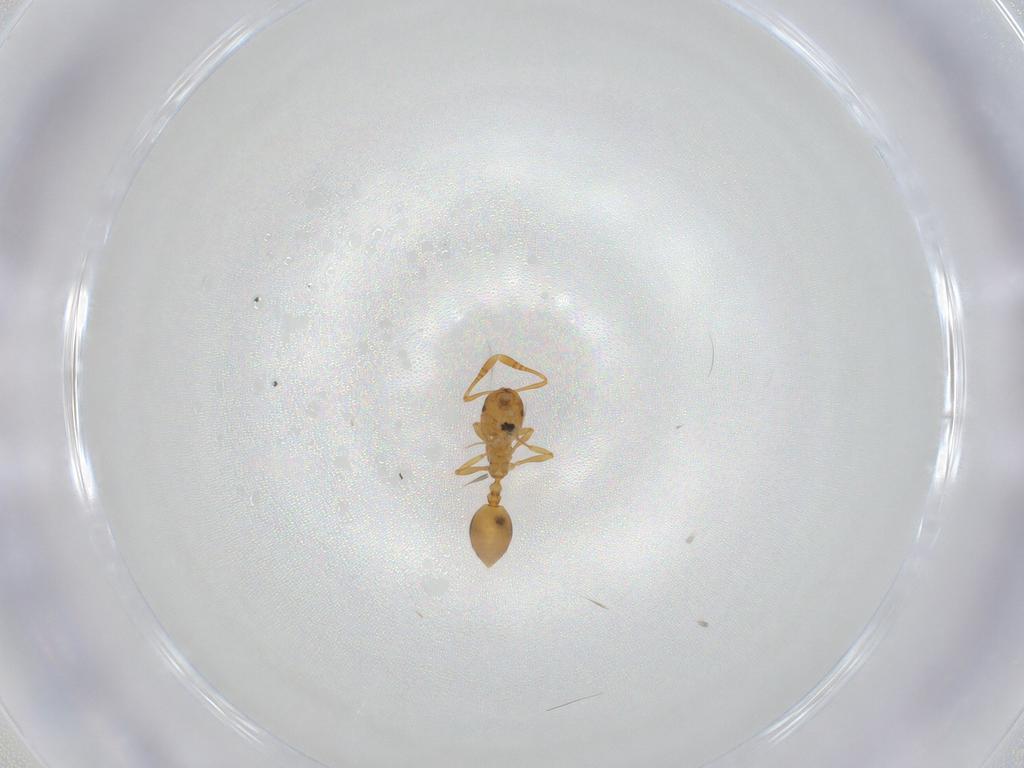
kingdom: Animalia
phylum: Arthropoda
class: Insecta
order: Hymenoptera
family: Formicidae
